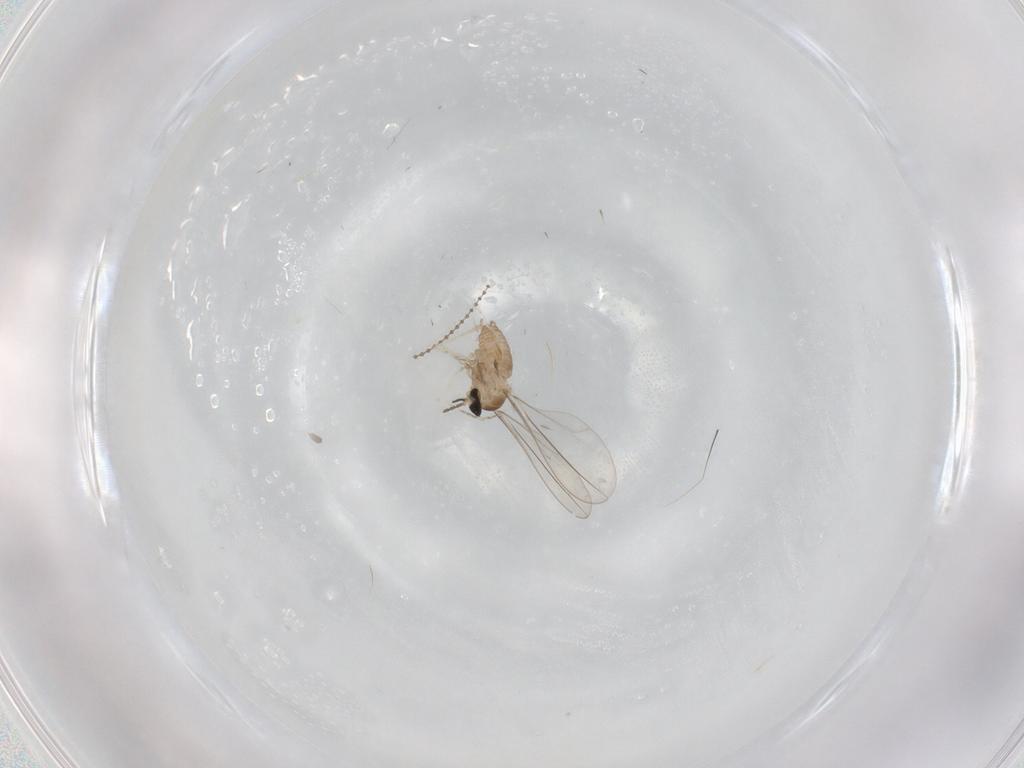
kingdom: Animalia
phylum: Arthropoda
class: Insecta
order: Diptera
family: Cecidomyiidae
